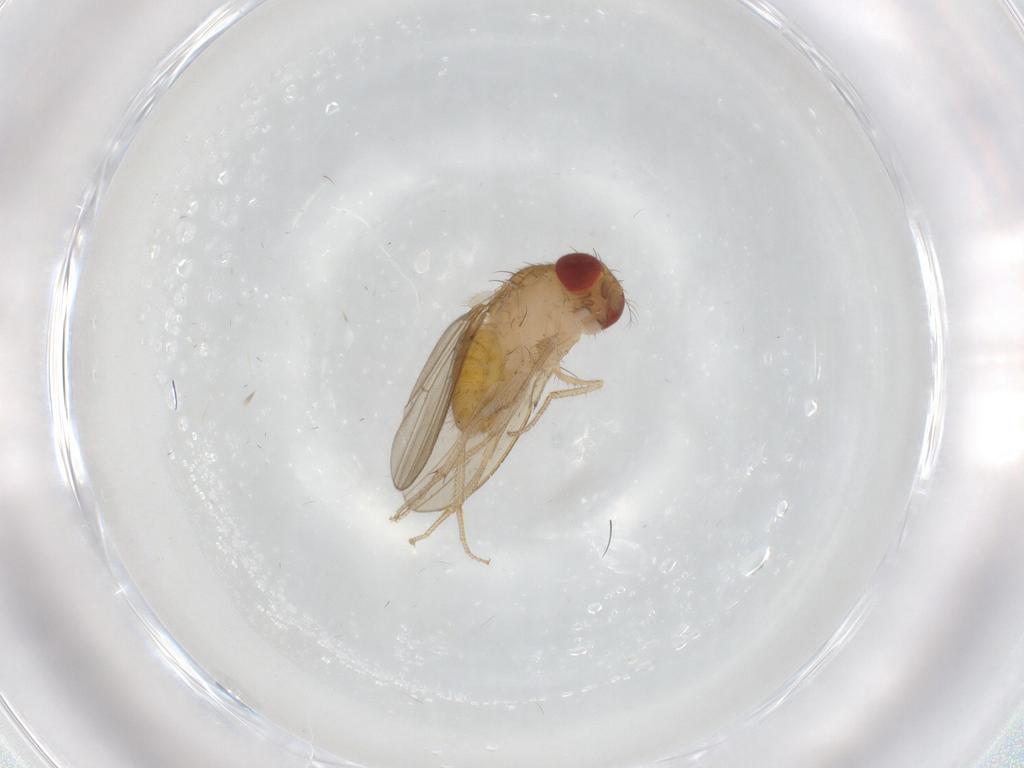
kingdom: Animalia
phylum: Arthropoda
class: Insecta
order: Diptera
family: Drosophilidae
